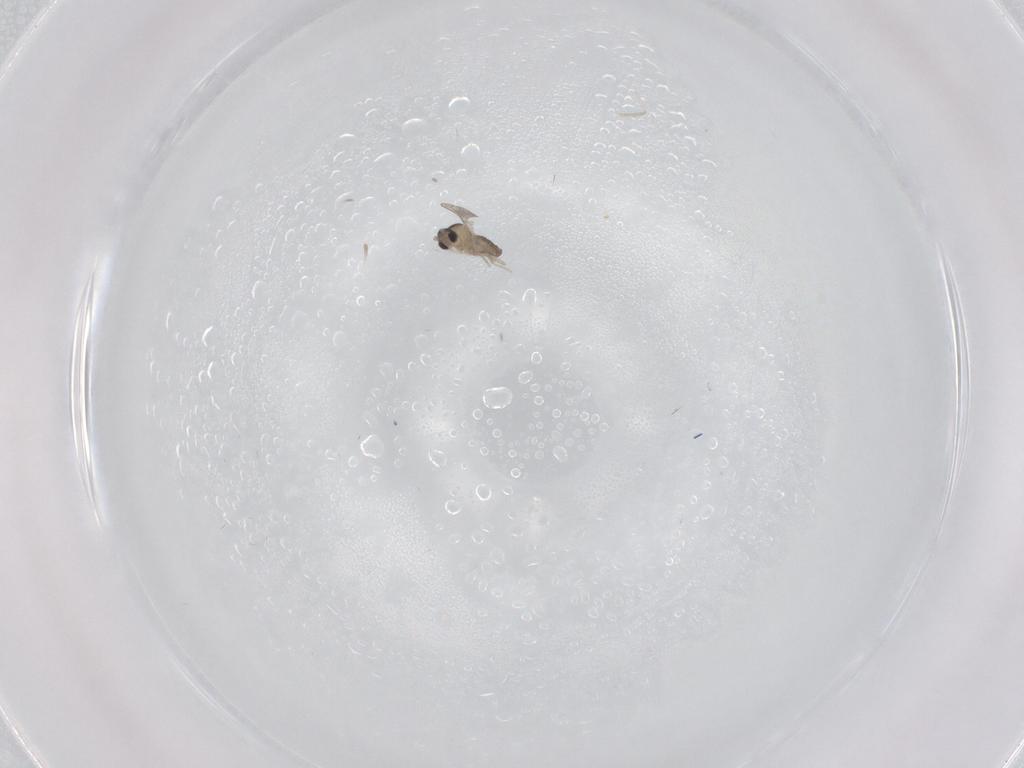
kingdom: Animalia
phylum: Arthropoda
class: Insecta
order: Diptera
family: Cecidomyiidae
